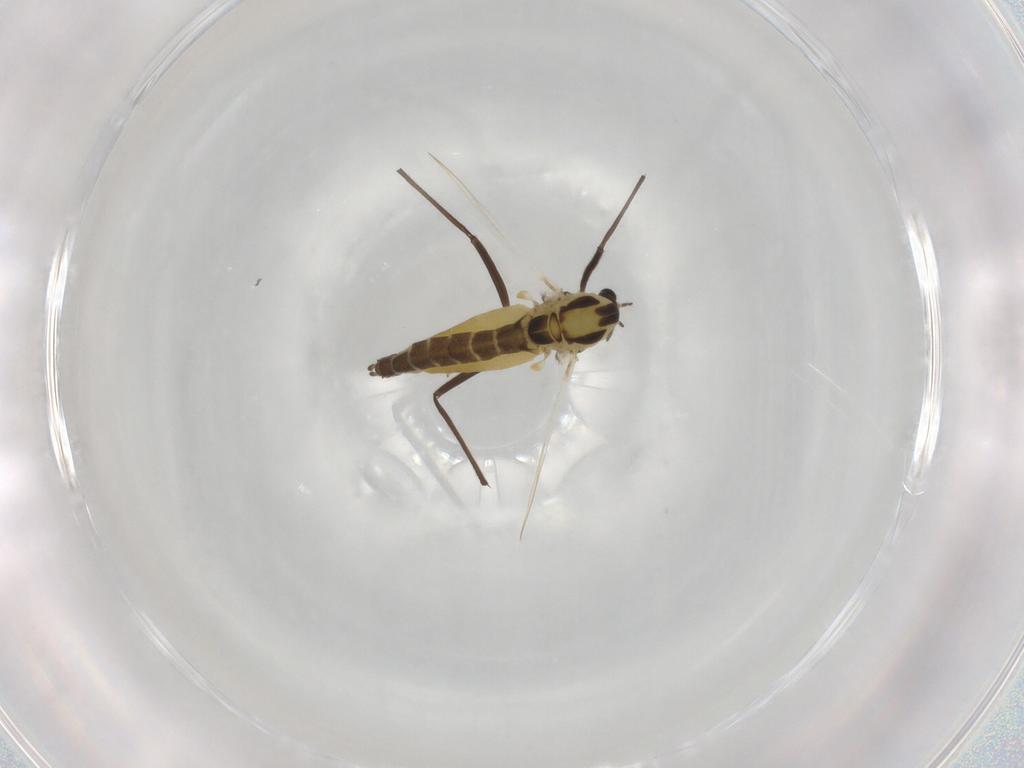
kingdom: Animalia
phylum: Arthropoda
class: Insecta
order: Diptera
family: Chironomidae
